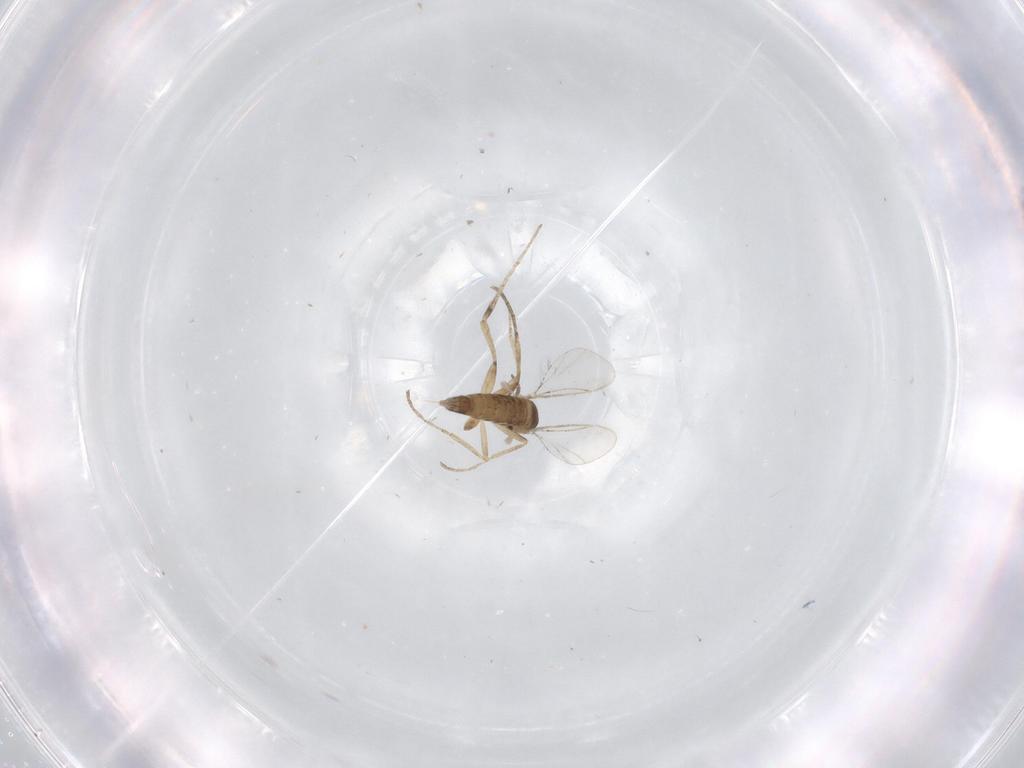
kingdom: Animalia
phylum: Arthropoda
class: Insecta
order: Diptera
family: Cecidomyiidae
